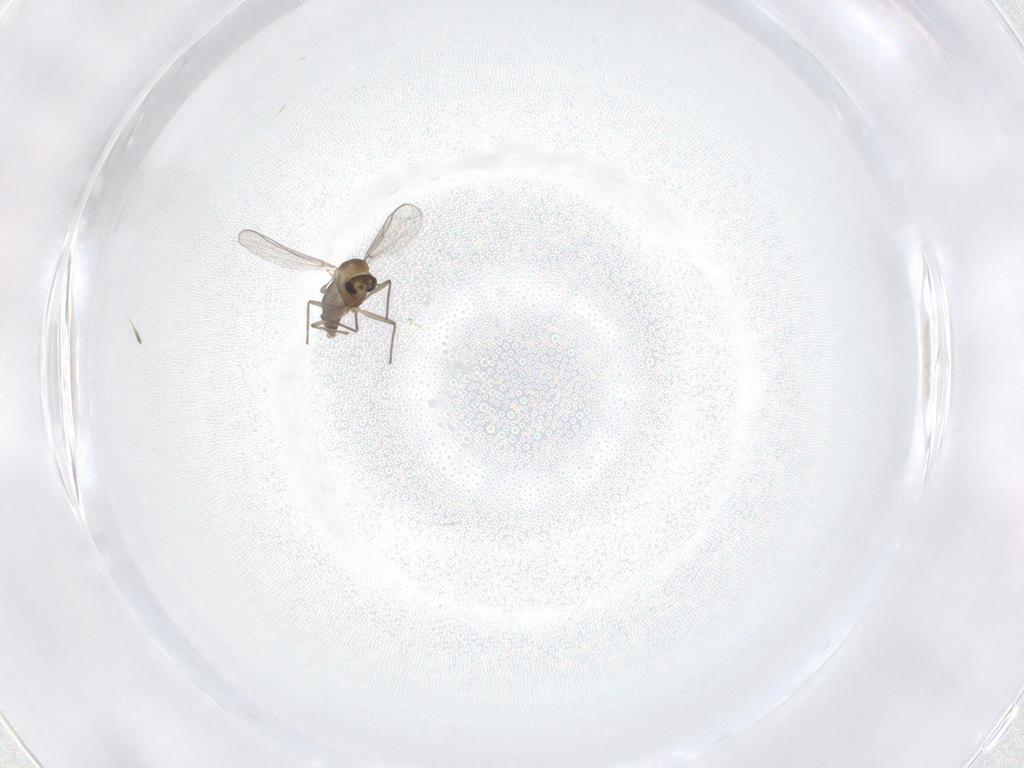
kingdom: Animalia
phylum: Arthropoda
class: Insecta
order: Diptera
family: Chironomidae
